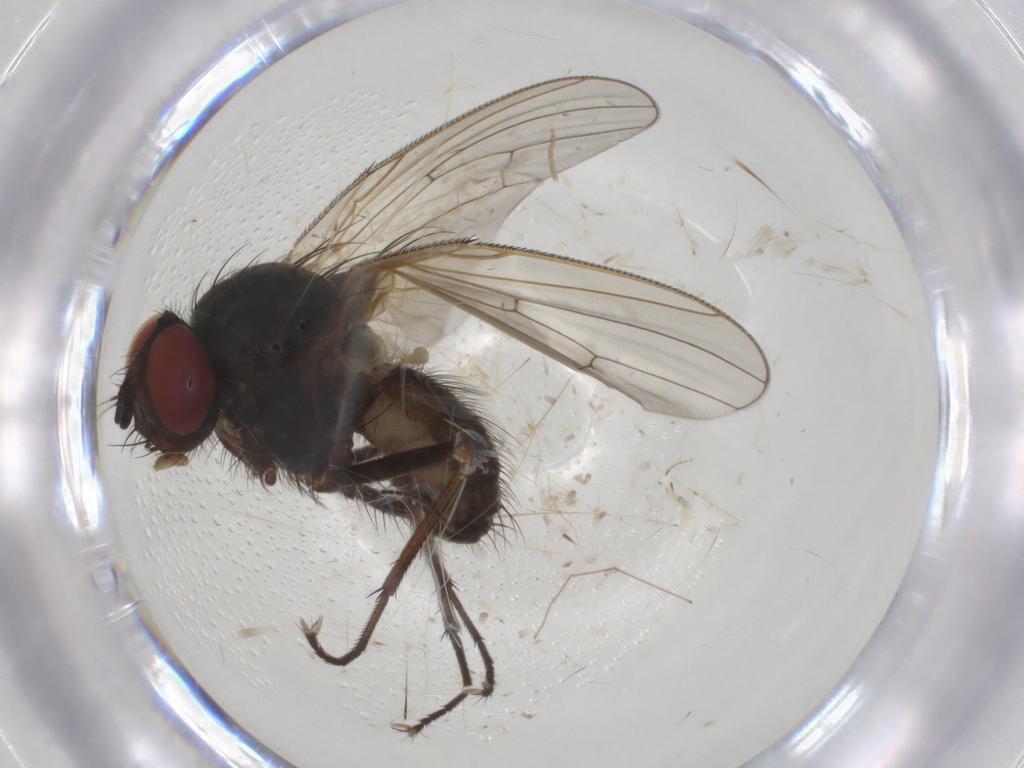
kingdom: Animalia
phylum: Arthropoda
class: Insecta
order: Diptera
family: Anthomyiidae
